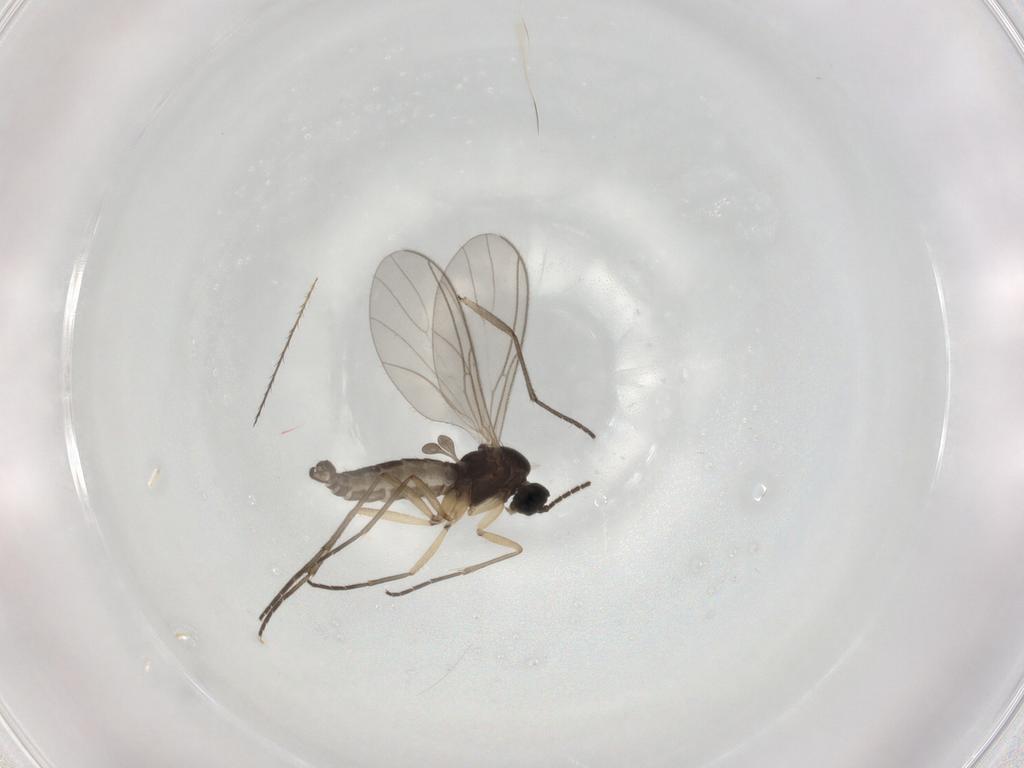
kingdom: Animalia
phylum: Arthropoda
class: Insecta
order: Diptera
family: Sciaridae
